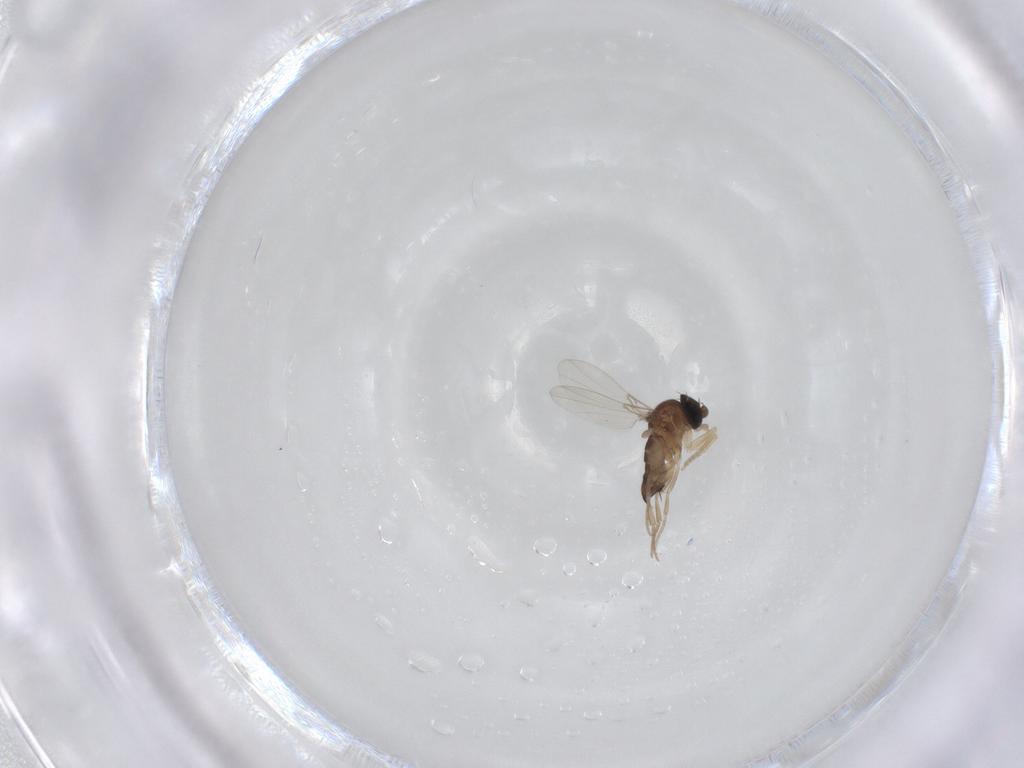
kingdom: Animalia
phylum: Arthropoda
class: Insecta
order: Diptera
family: Phoridae
